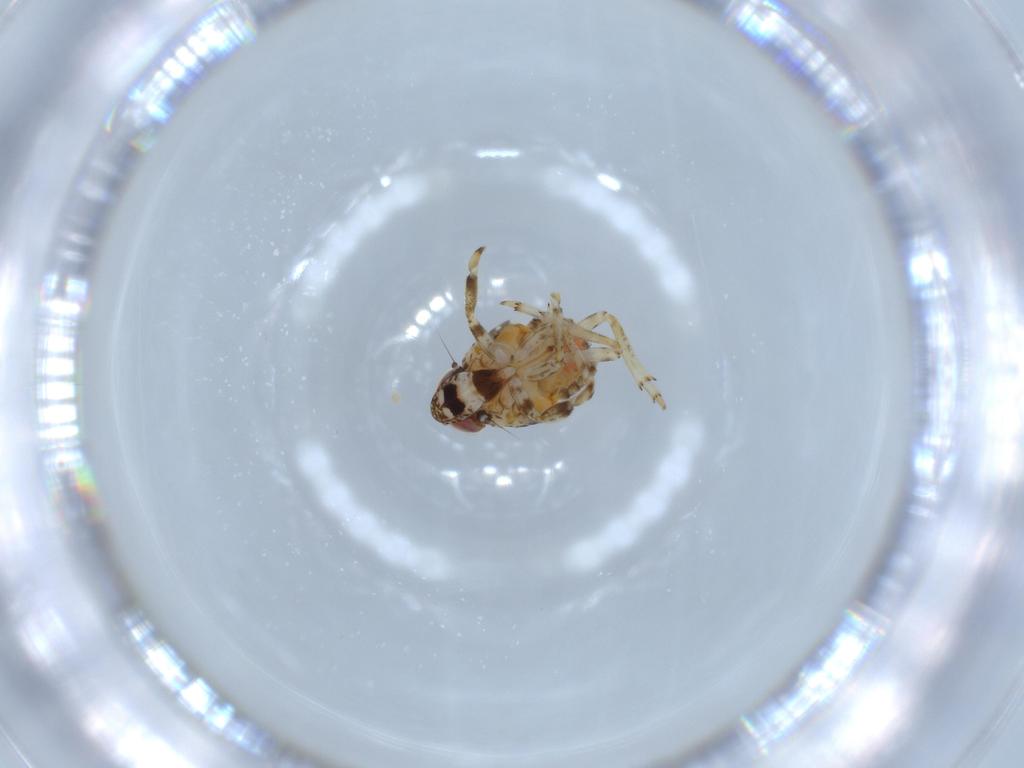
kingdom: Animalia
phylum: Arthropoda
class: Insecta
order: Hemiptera
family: Issidae
